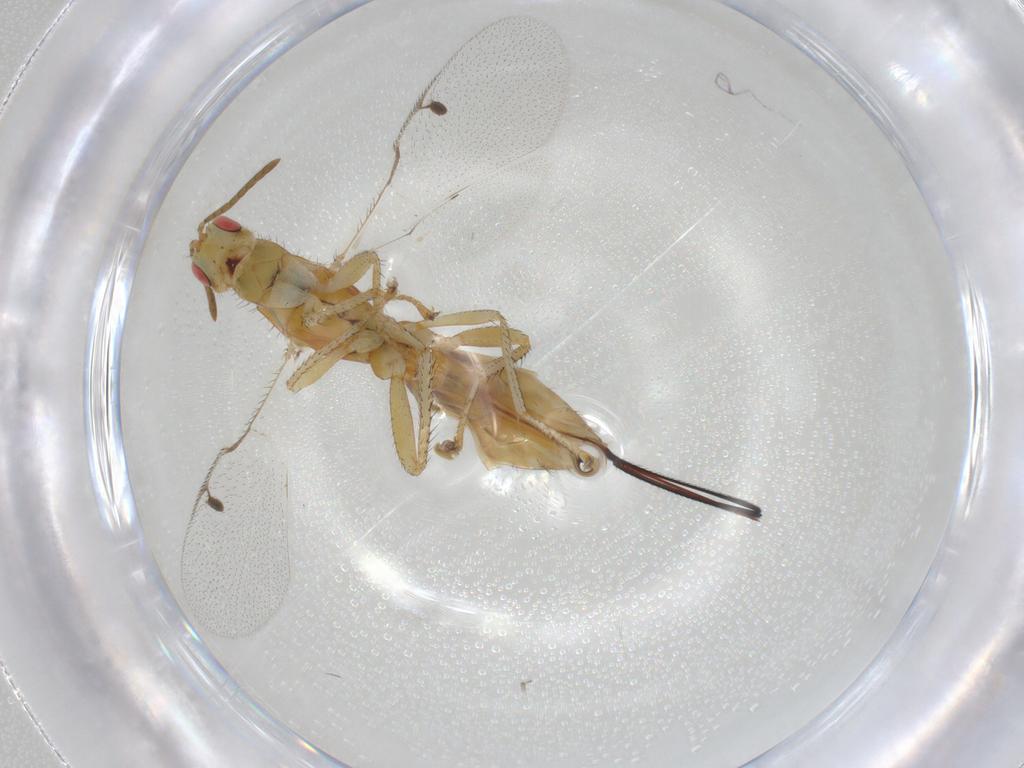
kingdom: Animalia
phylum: Arthropoda
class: Insecta
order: Hymenoptera
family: Megastigmidae
